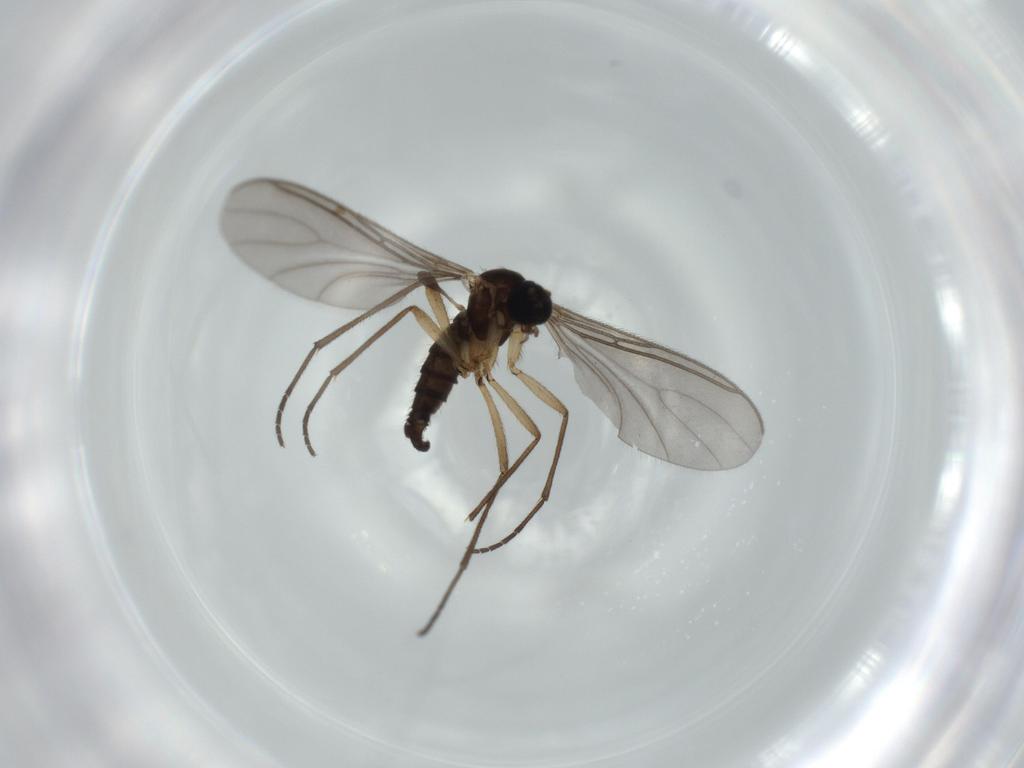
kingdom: Animalia
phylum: Arthropoda
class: Insecta
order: Diptera
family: Sciaridae
